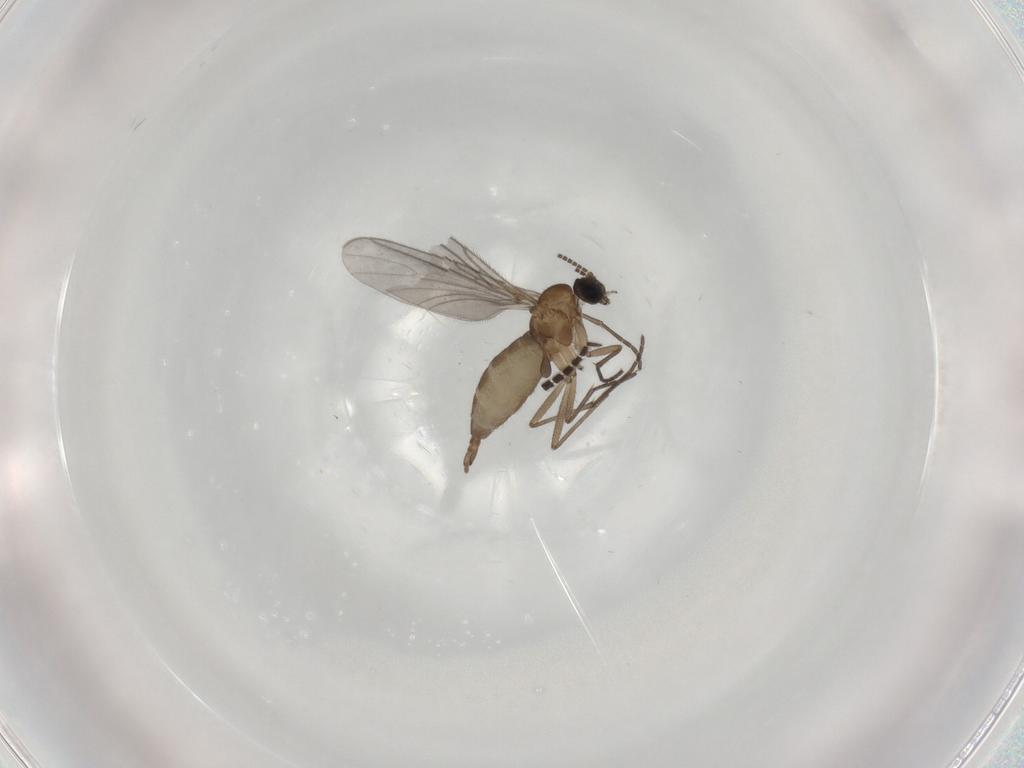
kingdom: Animalia
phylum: Arthropoda
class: Insecta
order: Diptera
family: Sciaridae
